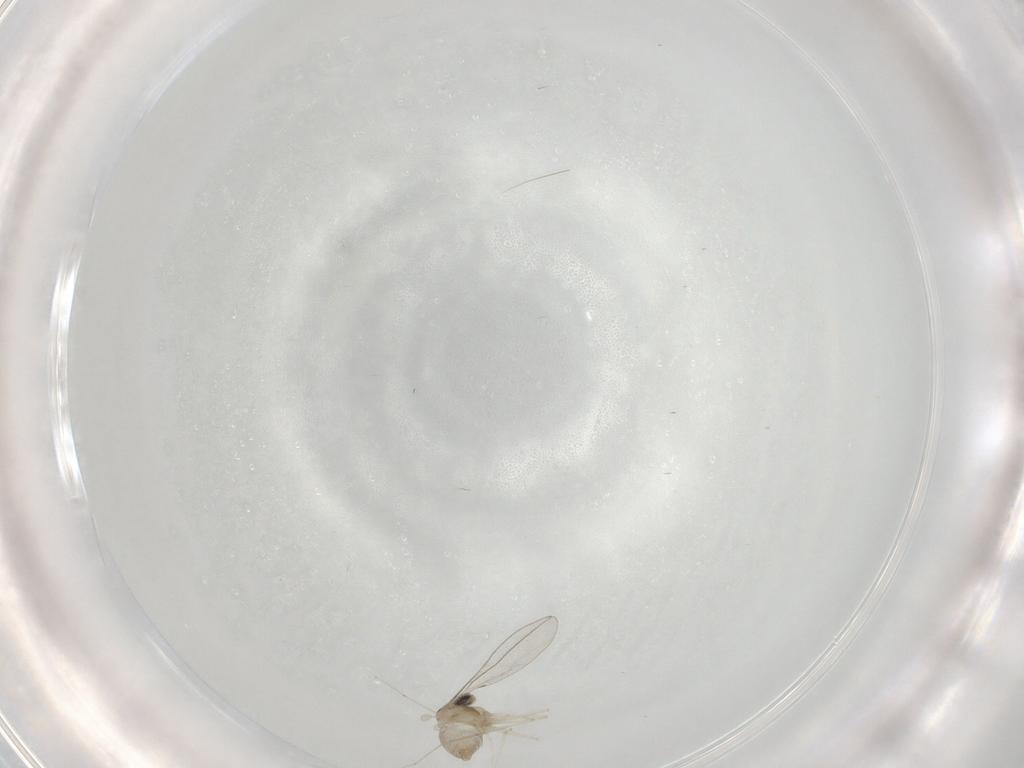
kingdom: Animalia
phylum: Arthropoda
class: Insecta
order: Diptera
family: Cecidomyiidae
